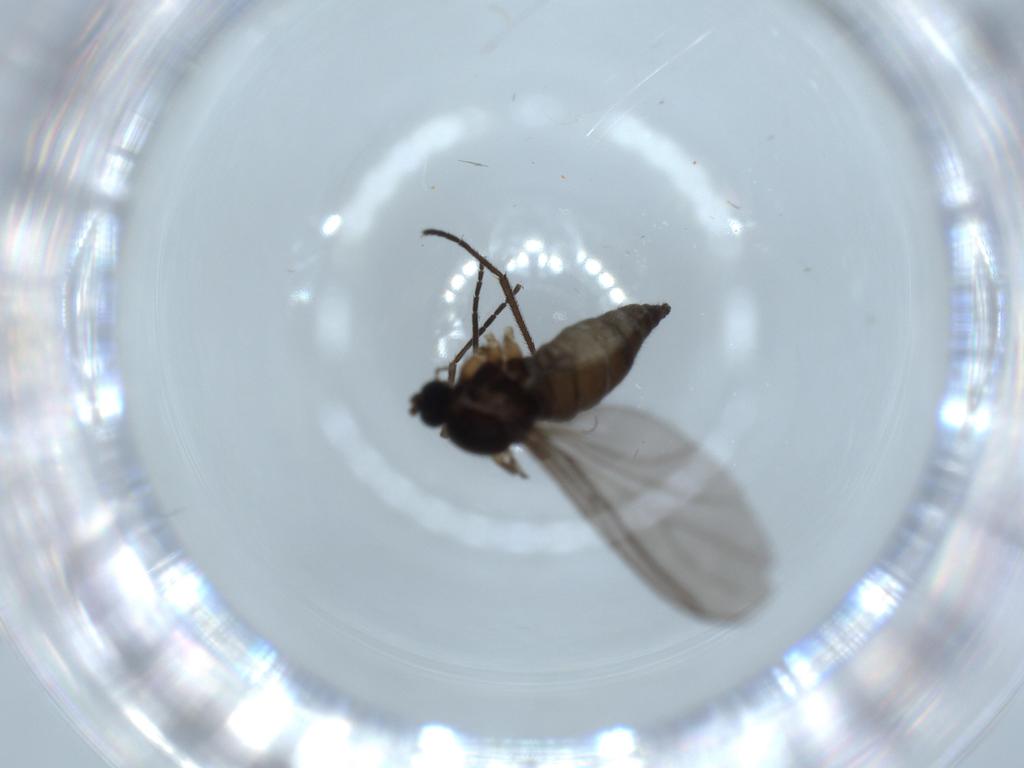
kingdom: Animalia
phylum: Arthropoda
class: Insecta
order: Diptera
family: Sciaridae
